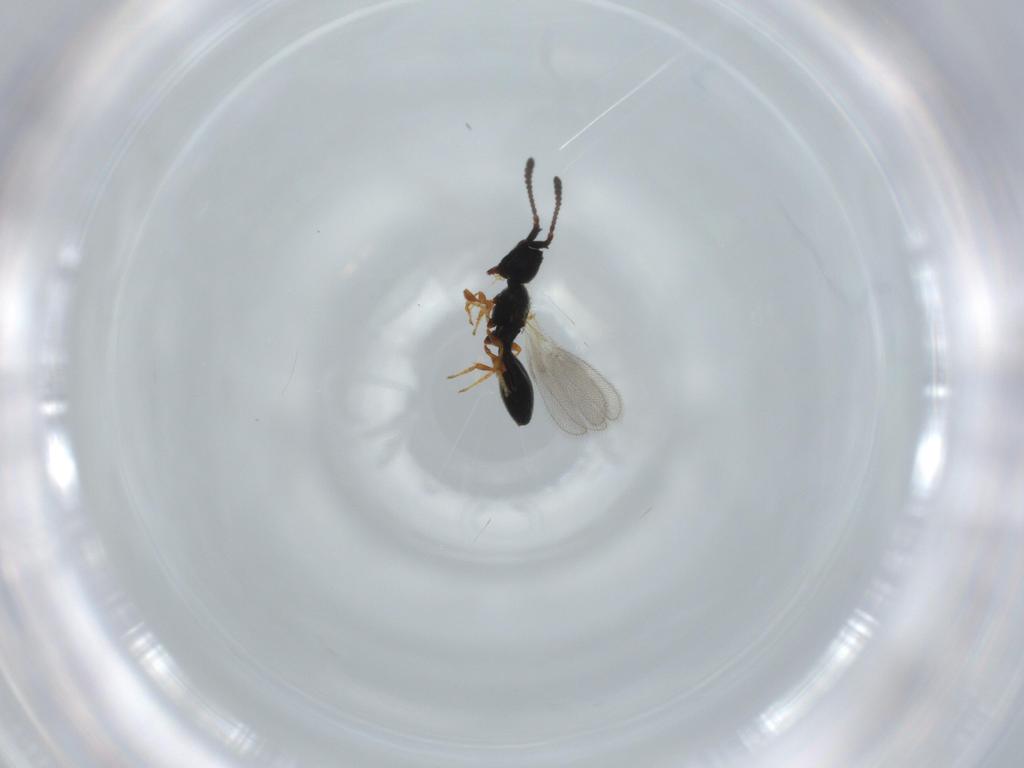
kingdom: Animalia
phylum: Arthropoda
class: Insecta
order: Hymenoptera
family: Diapriidae
